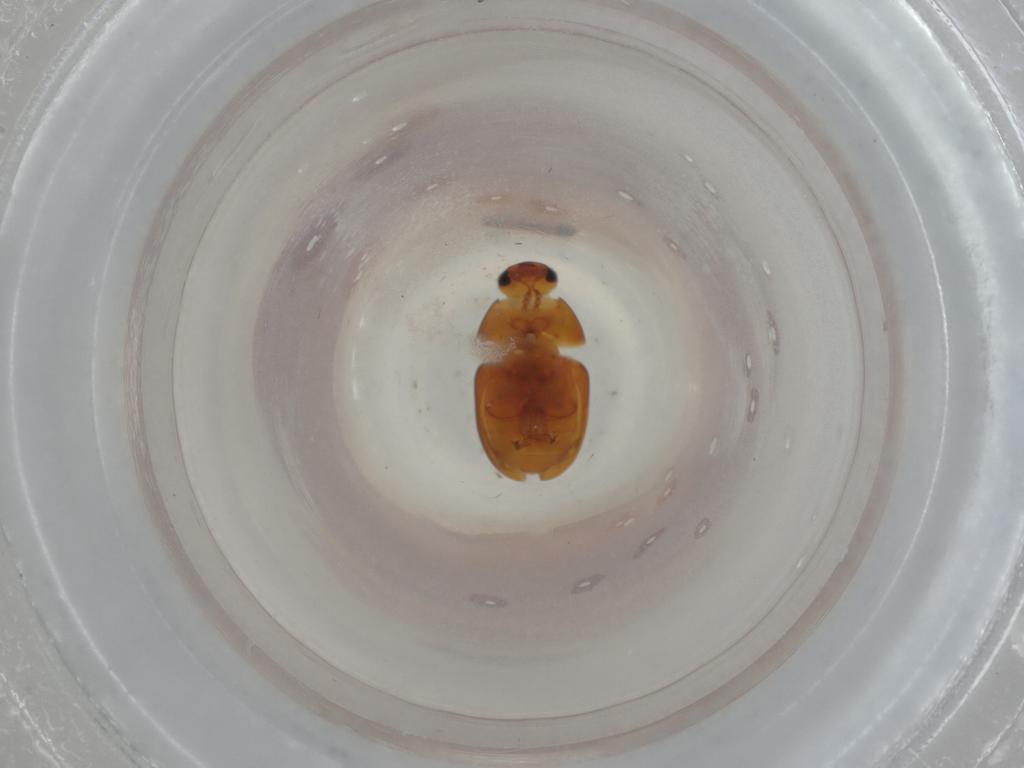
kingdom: Animalia
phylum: Arthropoda
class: Insecta
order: Coleoptera
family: Phalacridae
